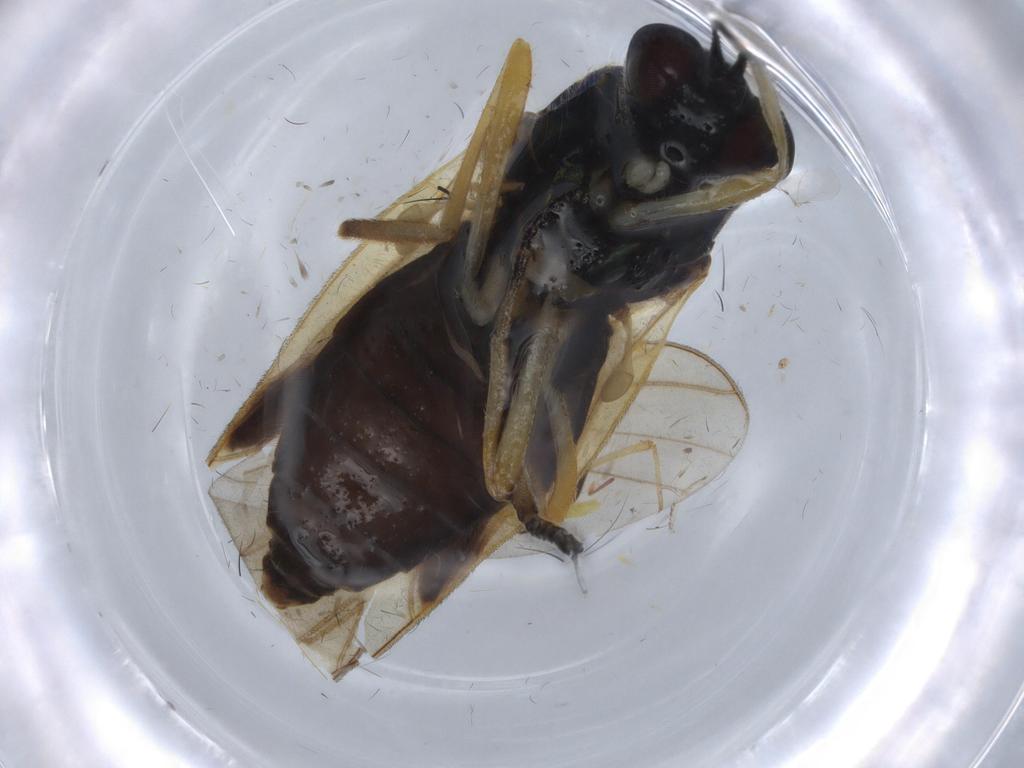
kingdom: Animalia
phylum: Arthropoda
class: Insecta
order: Diptera
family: Stratiomyidae
